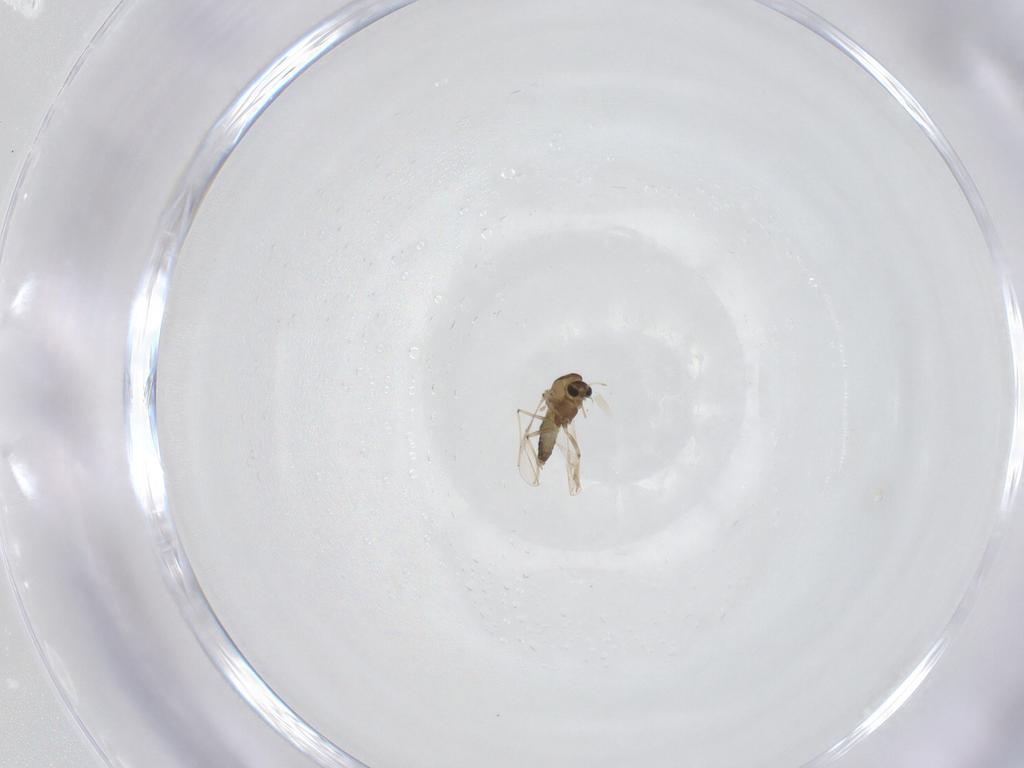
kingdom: Animalia
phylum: Arthropoda
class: Insecta
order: Diptera
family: Chironomidae
